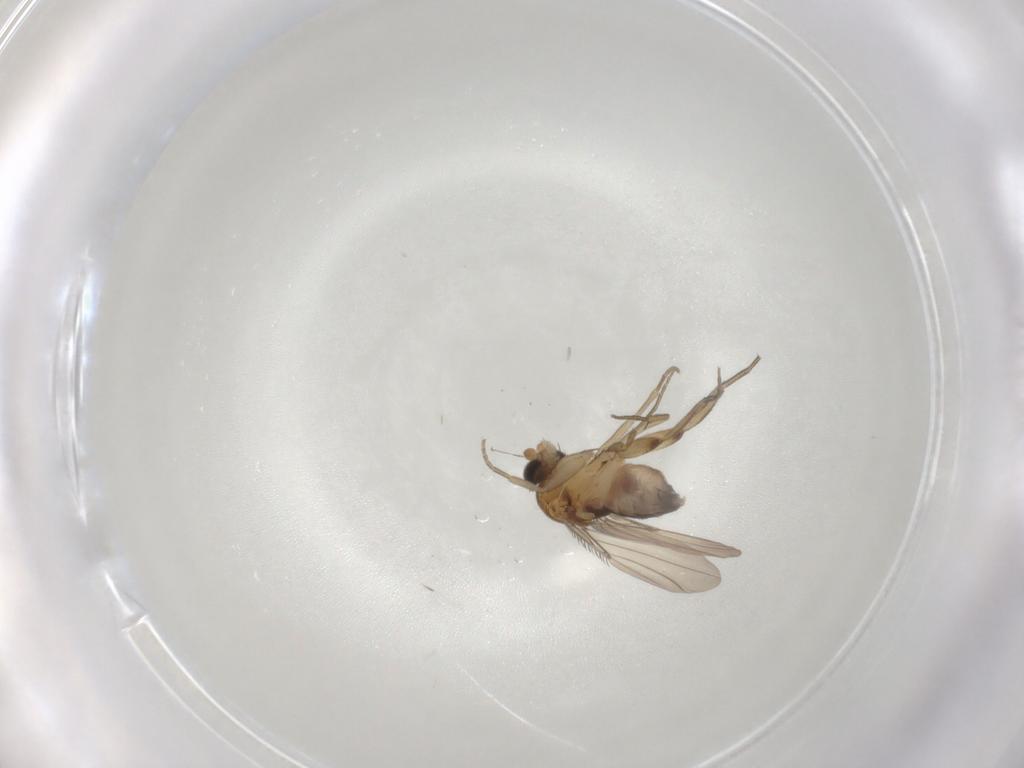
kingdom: Animalia
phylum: Arthropoda
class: Insecta
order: Diptera
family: Phoridae
